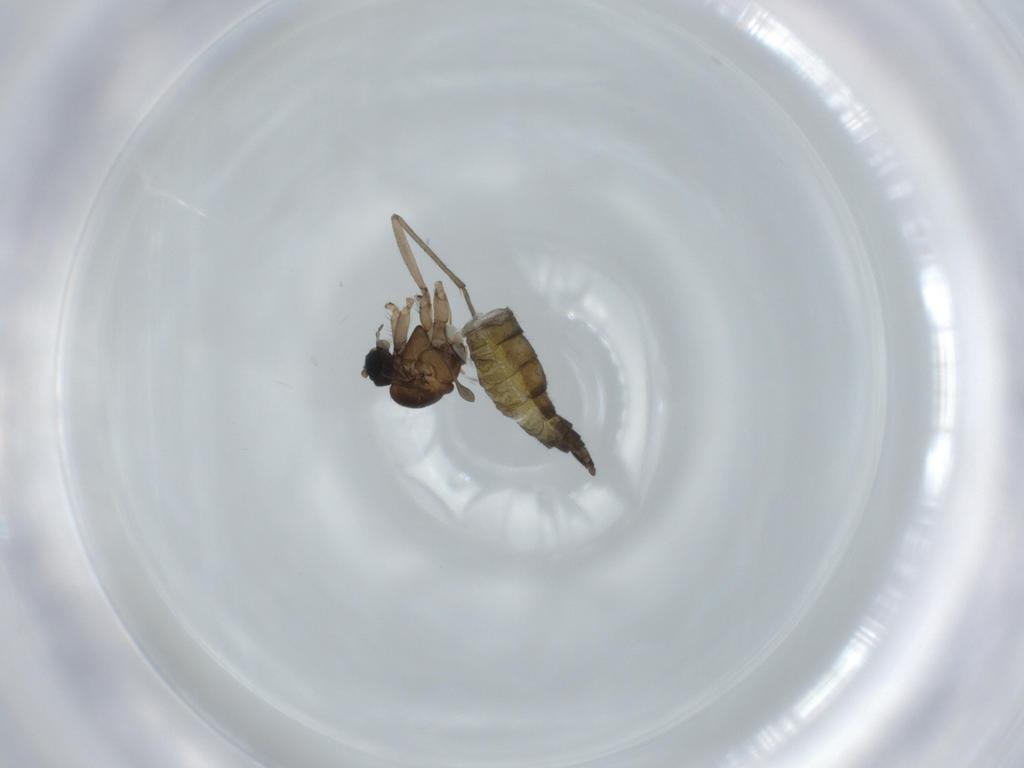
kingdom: Animalia
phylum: Arthropoda
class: Insecta
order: Diptera
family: Sciaridae
